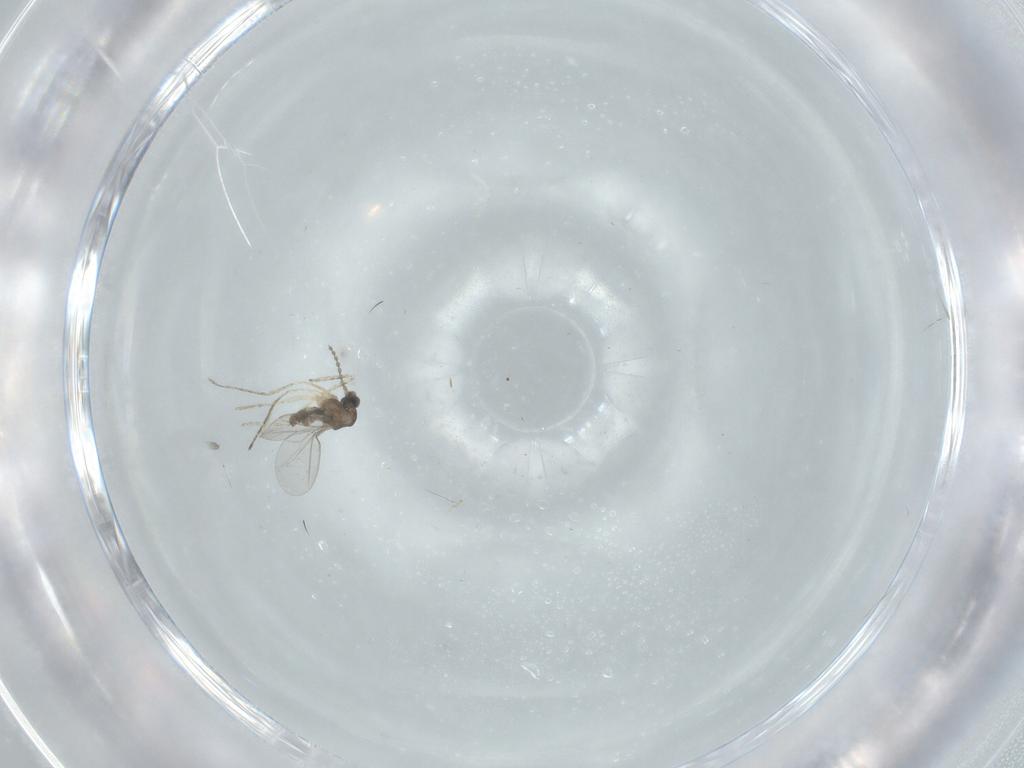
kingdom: Animalia
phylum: Arthropoda
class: Insecta
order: Diptera
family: Cecidomyiidae
